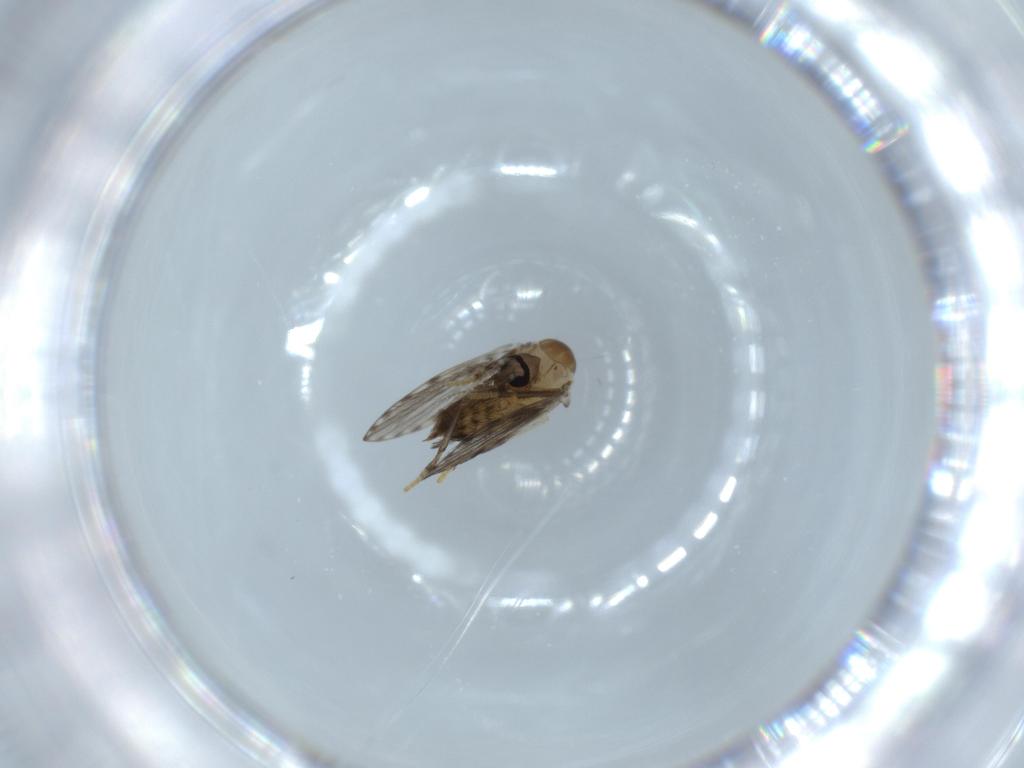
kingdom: Animalia
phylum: Arthropoda
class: Insecta
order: Diptera
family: Psychodidae
